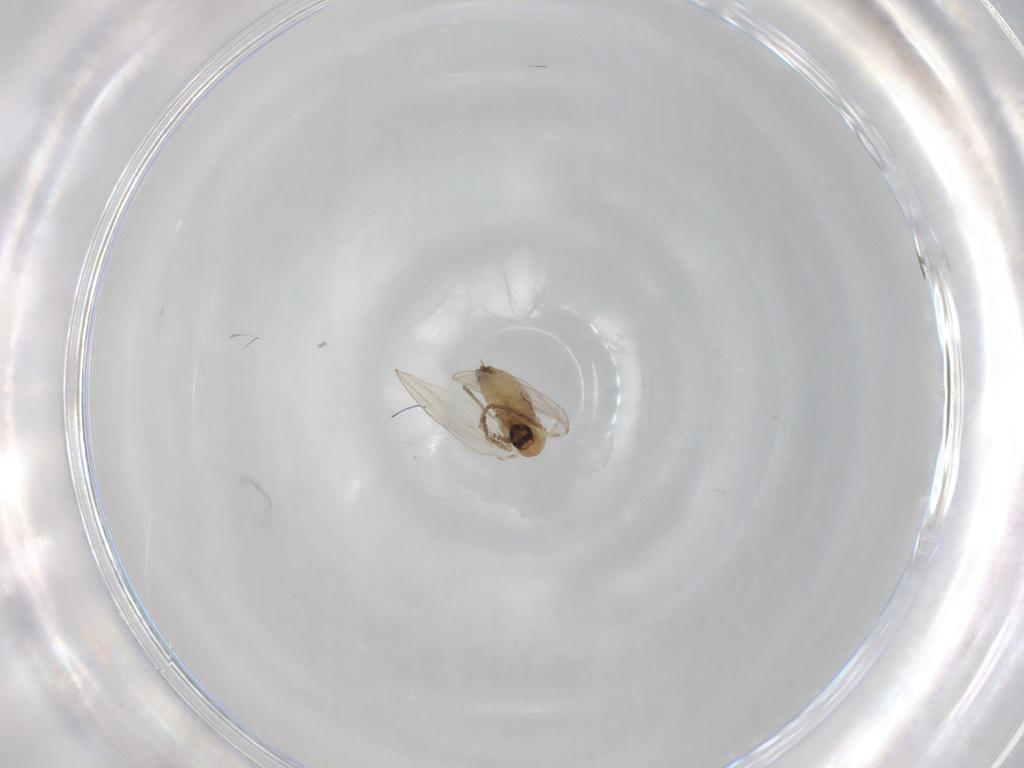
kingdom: Animalia
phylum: Arthropoda
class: Insecta
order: Diptera
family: Psychodidae
